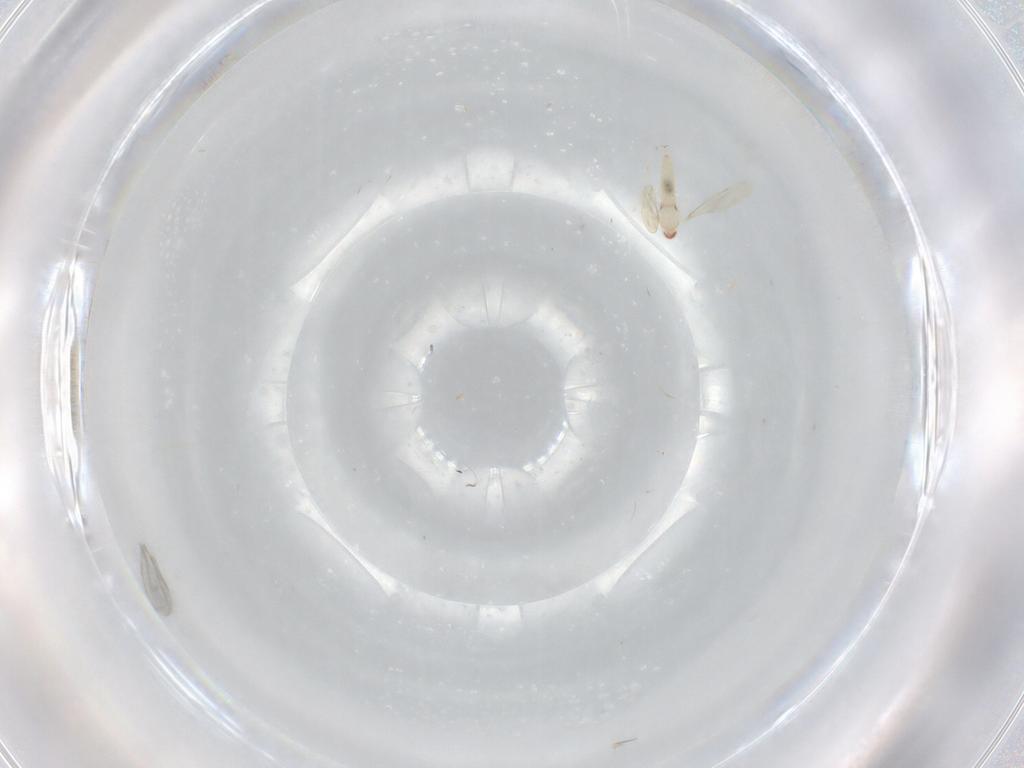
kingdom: Animalia
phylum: Arthropoda
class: Insecta
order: Diptera
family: Cecidomyiidae
